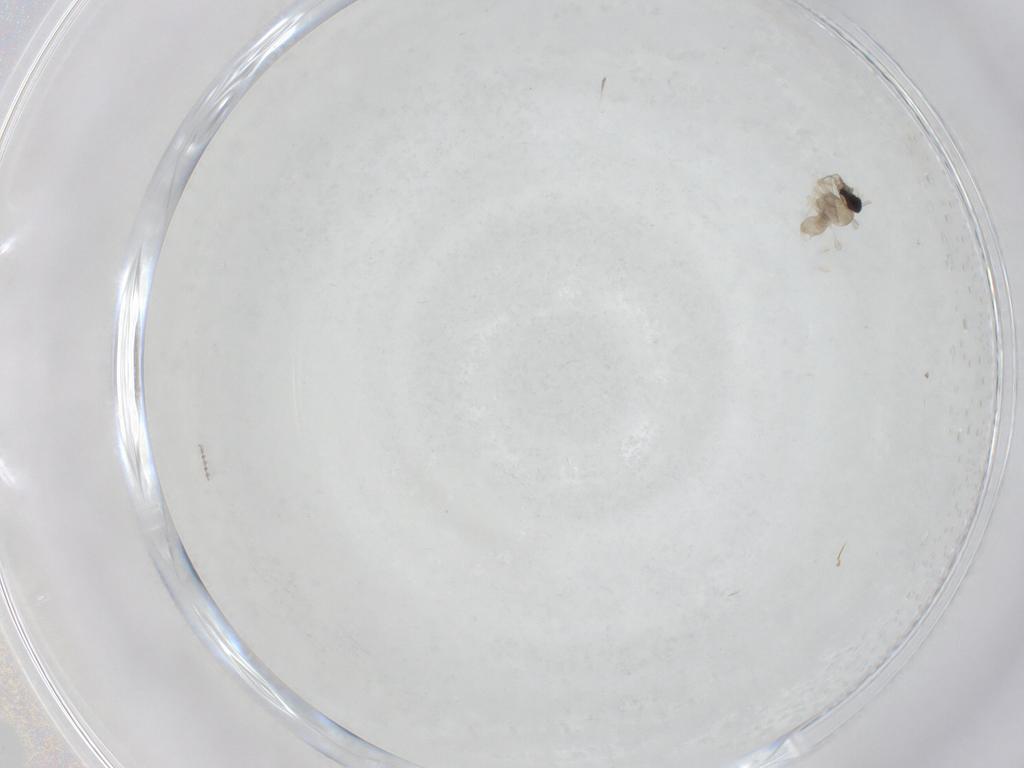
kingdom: Animalia
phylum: Arthropoda
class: Insecta
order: Diptera
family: Cecidomyiidae
